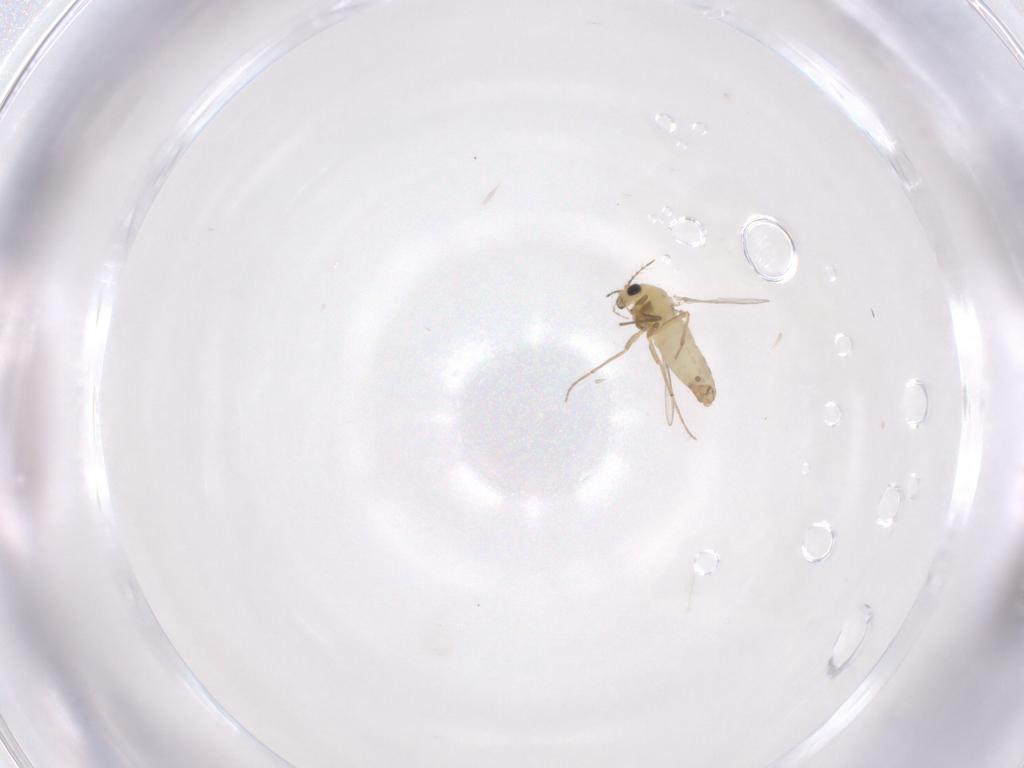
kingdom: Animalia
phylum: Arthropoda
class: Insecta
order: Diptera
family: Chironomidae
